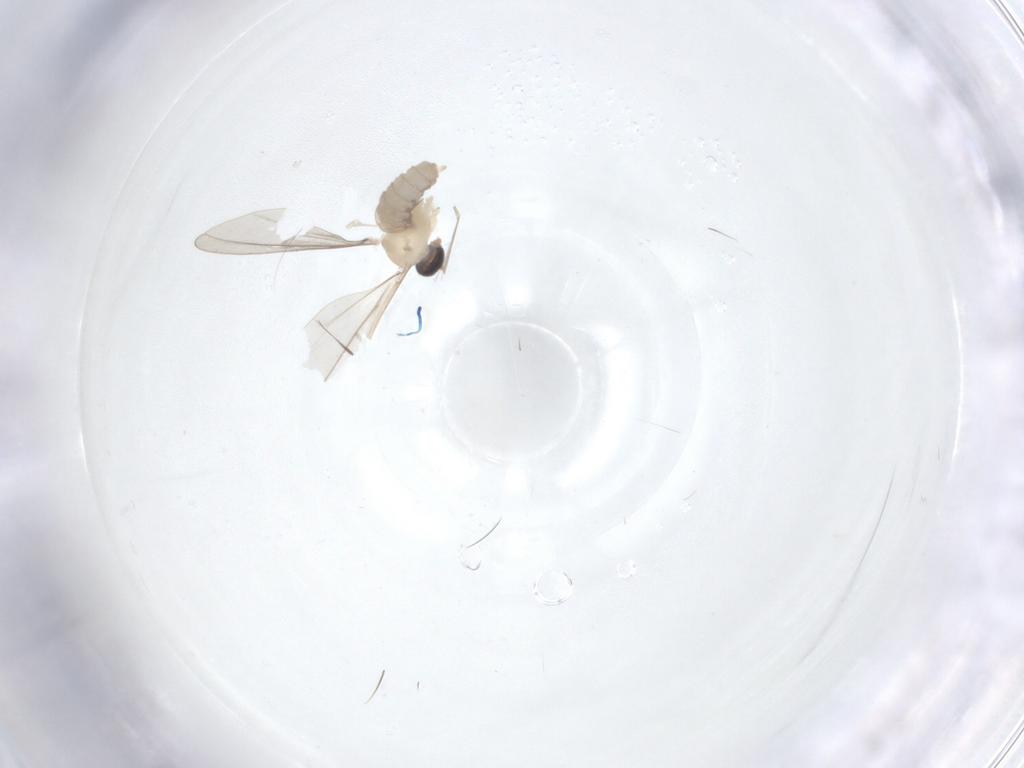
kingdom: Animalia
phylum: Arthropoda
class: Insecta
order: Diptera
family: Cecidomyiidae
